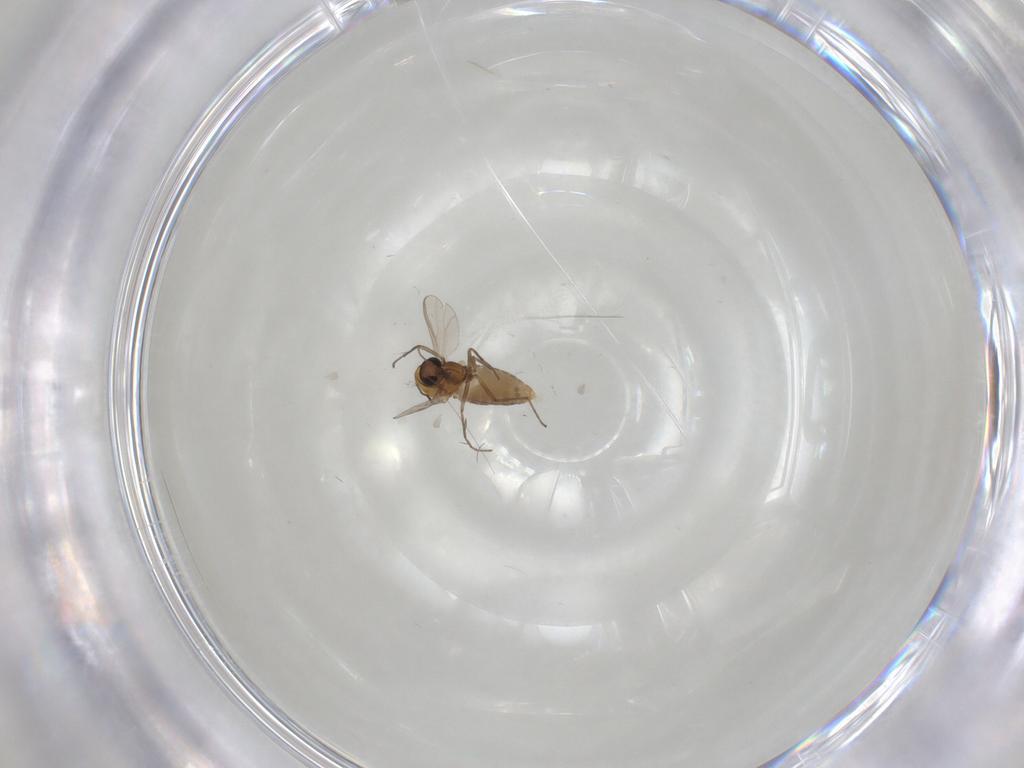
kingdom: Animalia
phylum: Arthropoda
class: Insecta
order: Diptera
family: Chironomidae
